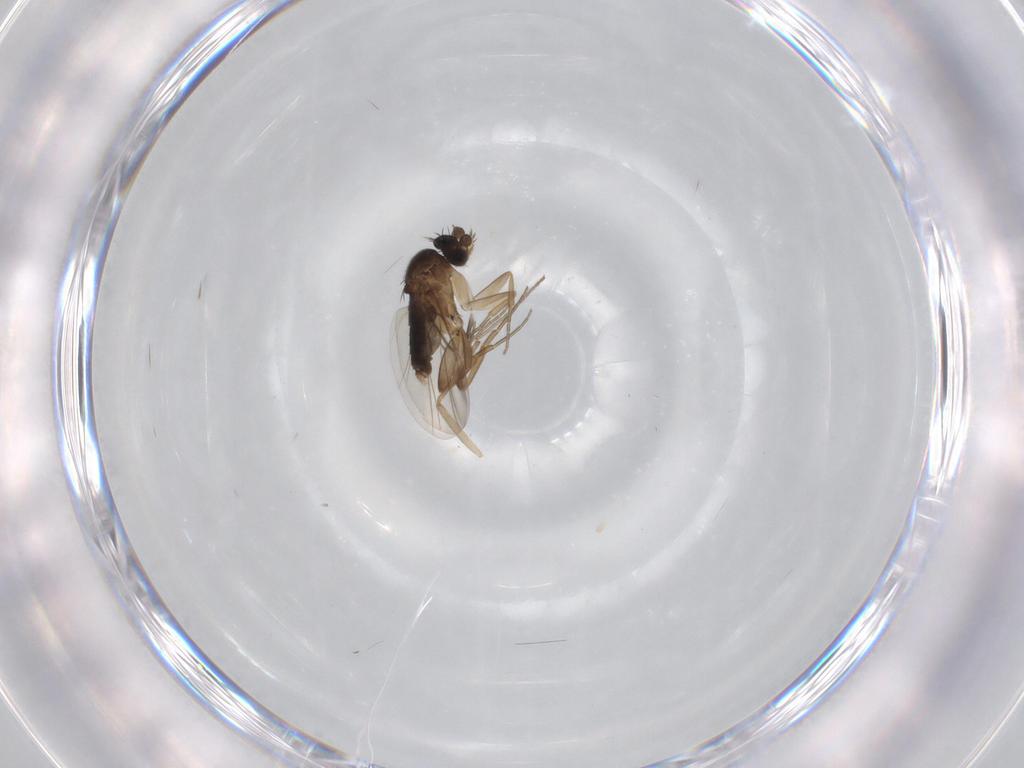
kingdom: Animalia
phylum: Arthropoda
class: Insecta
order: Diptera
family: Phoridae
